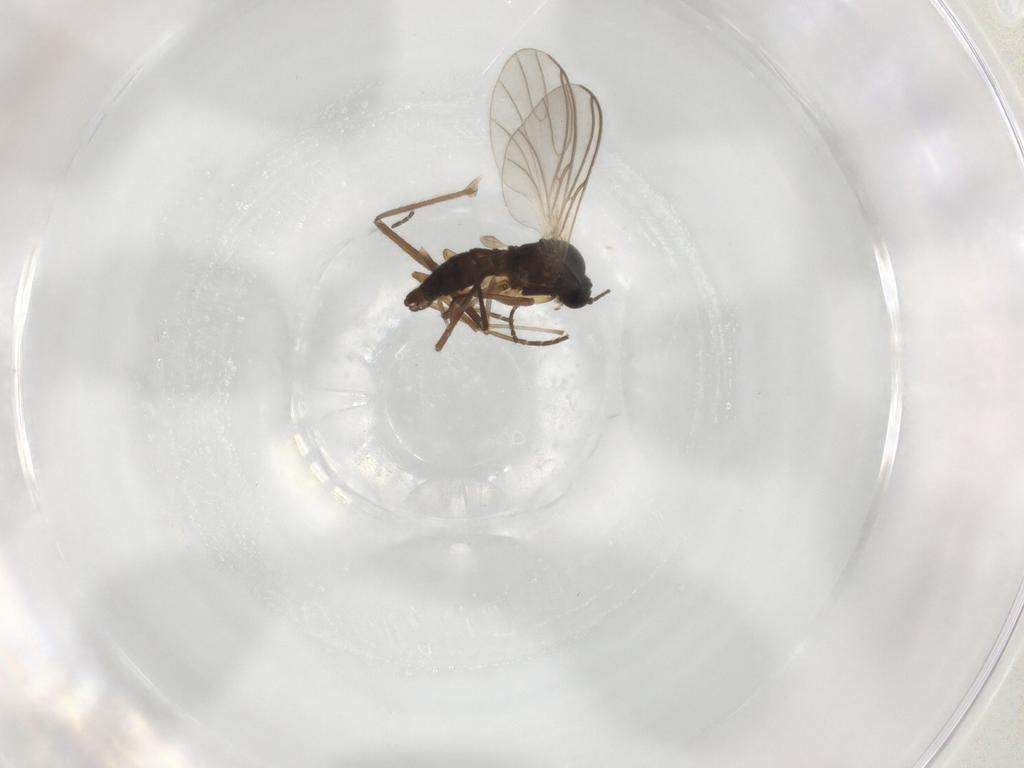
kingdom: Animalia
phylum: Arthropoda
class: Insecta
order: Diptera
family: Chironomidae
